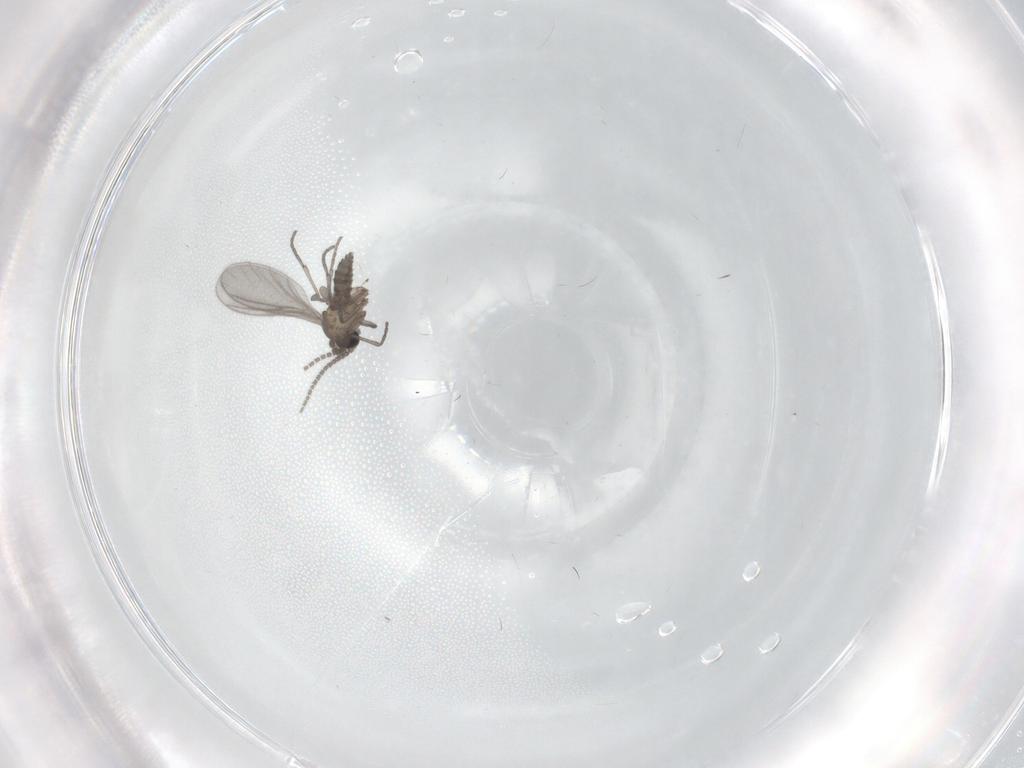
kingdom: Animalia
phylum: Arthropoda
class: Insecta
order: Diptera
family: Sciaridae
